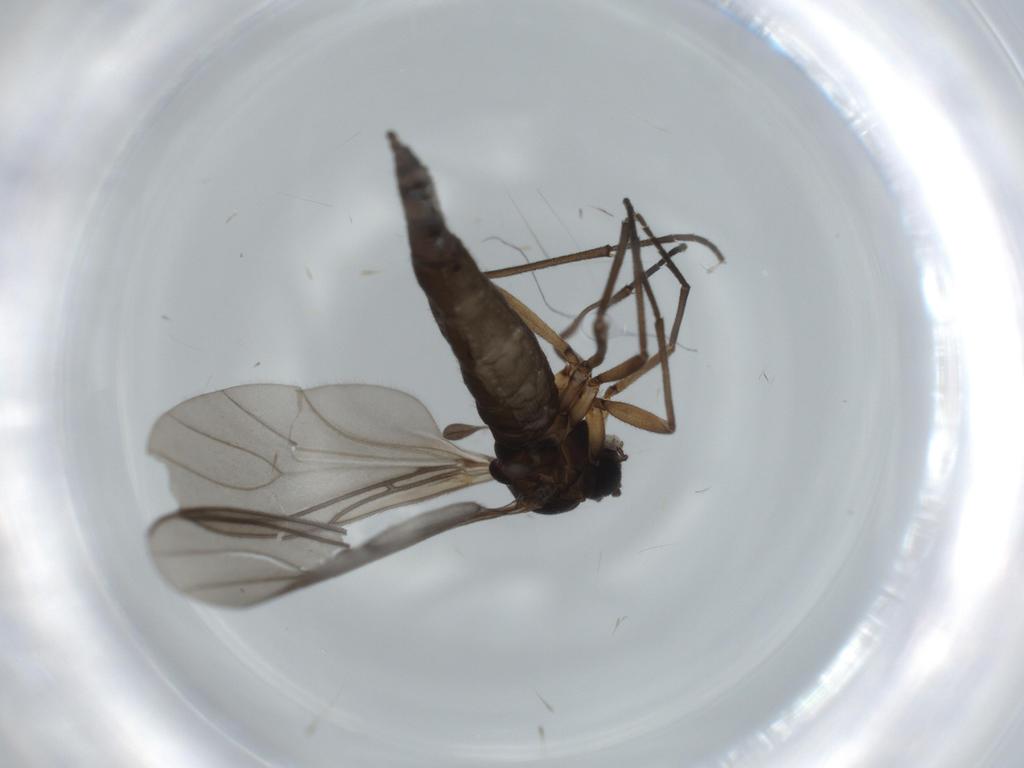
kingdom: Animalia
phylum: Arthropoda
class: Insecta
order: Diptera
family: Sciaridae
